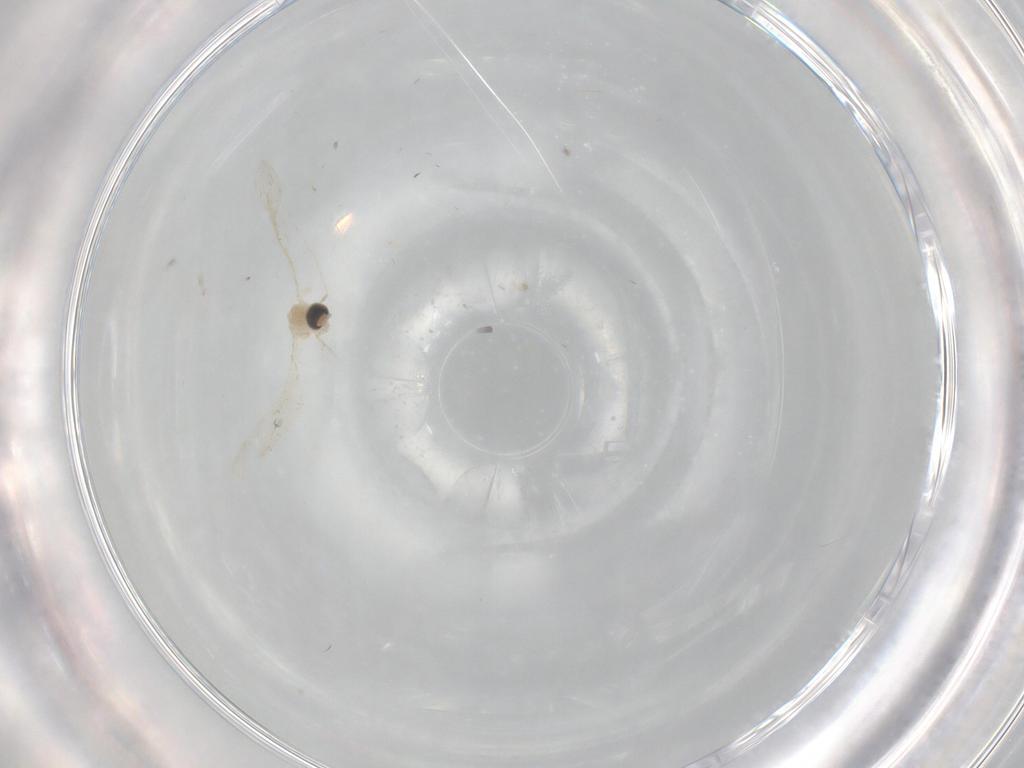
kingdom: Animalia
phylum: Arthropoda
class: Insecta
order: Diptera
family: Cecidomyiidae
